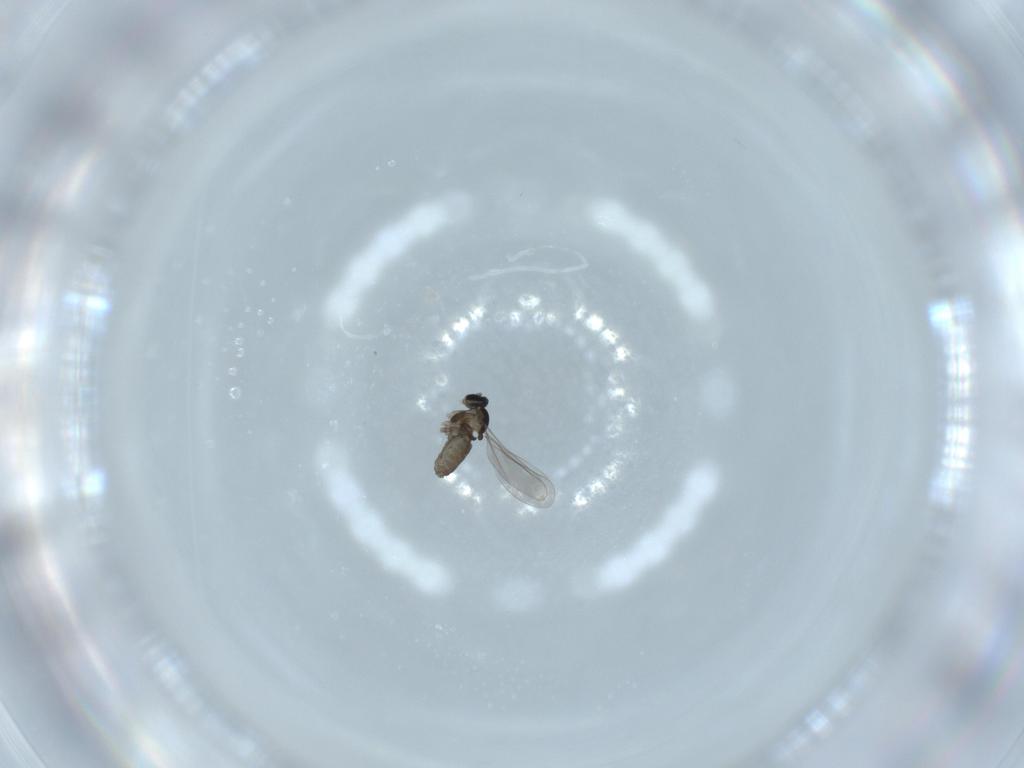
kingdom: Animalia
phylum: Arthropoda
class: Insecta
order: Diptera
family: Cecidomyiidae
